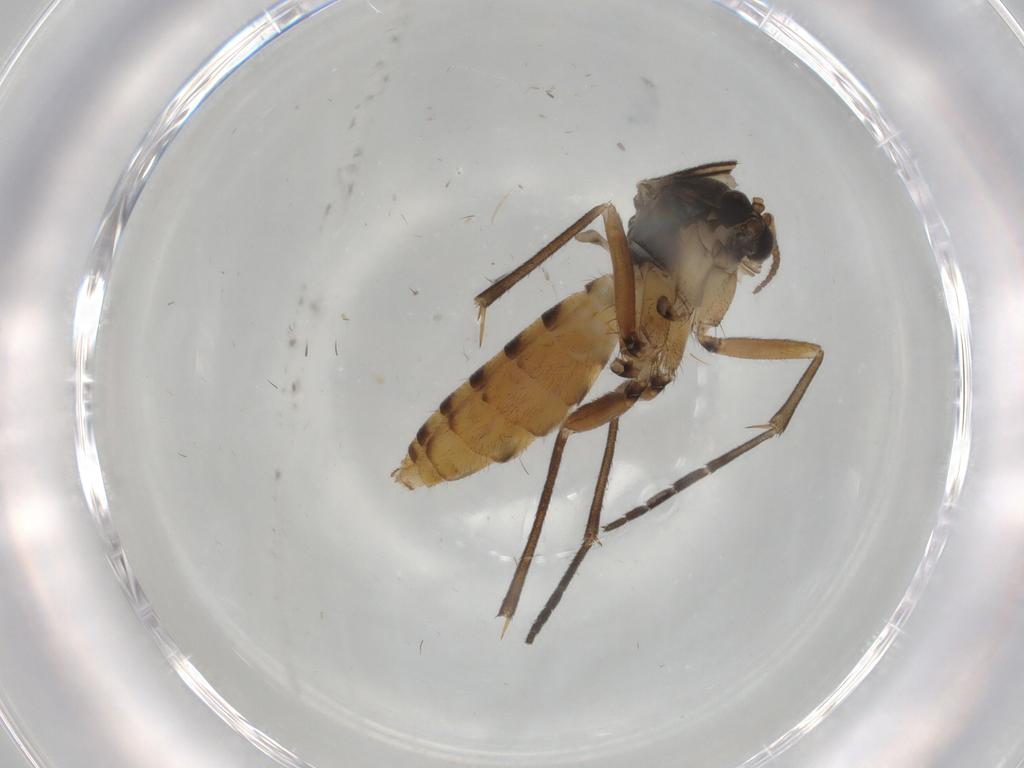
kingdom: Animalia
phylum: Arthropoda
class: Insecta
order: Diptera
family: Mycetophilidae
